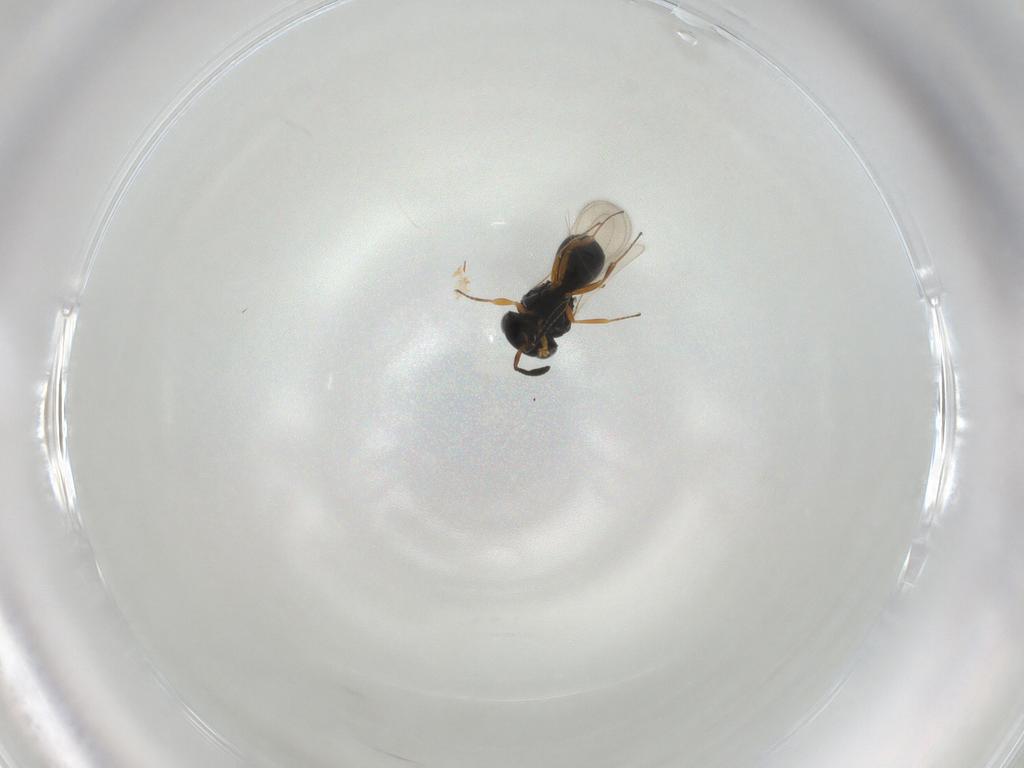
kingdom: Animalia
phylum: Arthropoda
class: Insecta
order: Hymenoptera
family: Scelionidae
